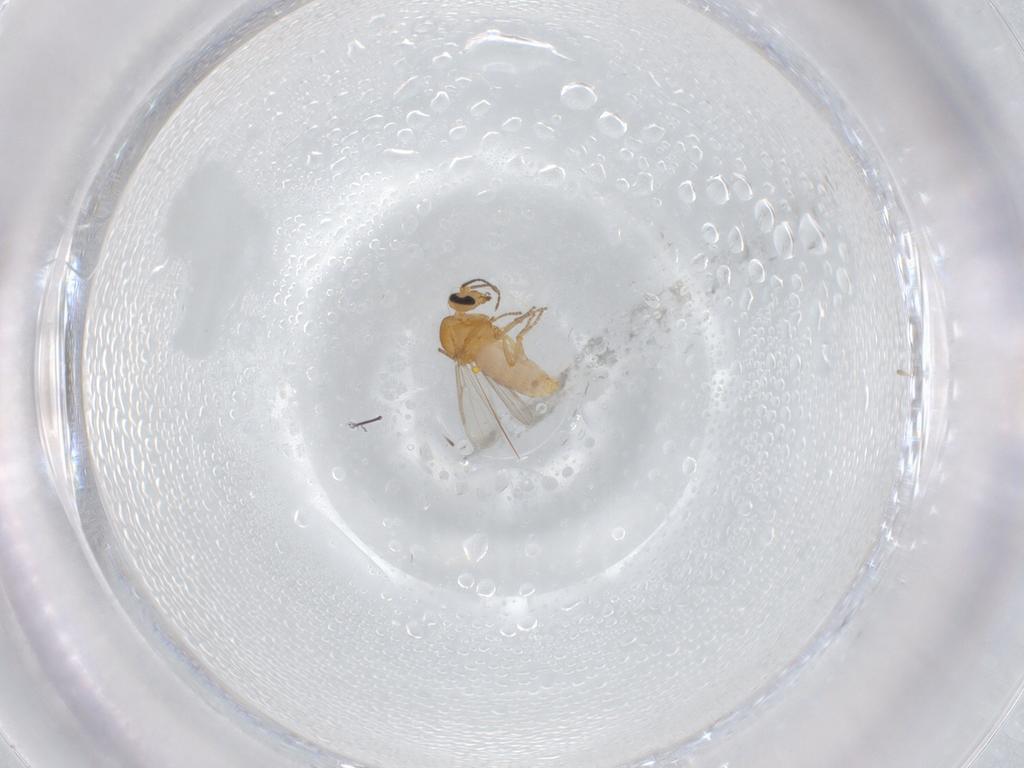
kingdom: Animalia
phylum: Arthropoda
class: Insecta
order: Diptera
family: Ceratopogonidae
